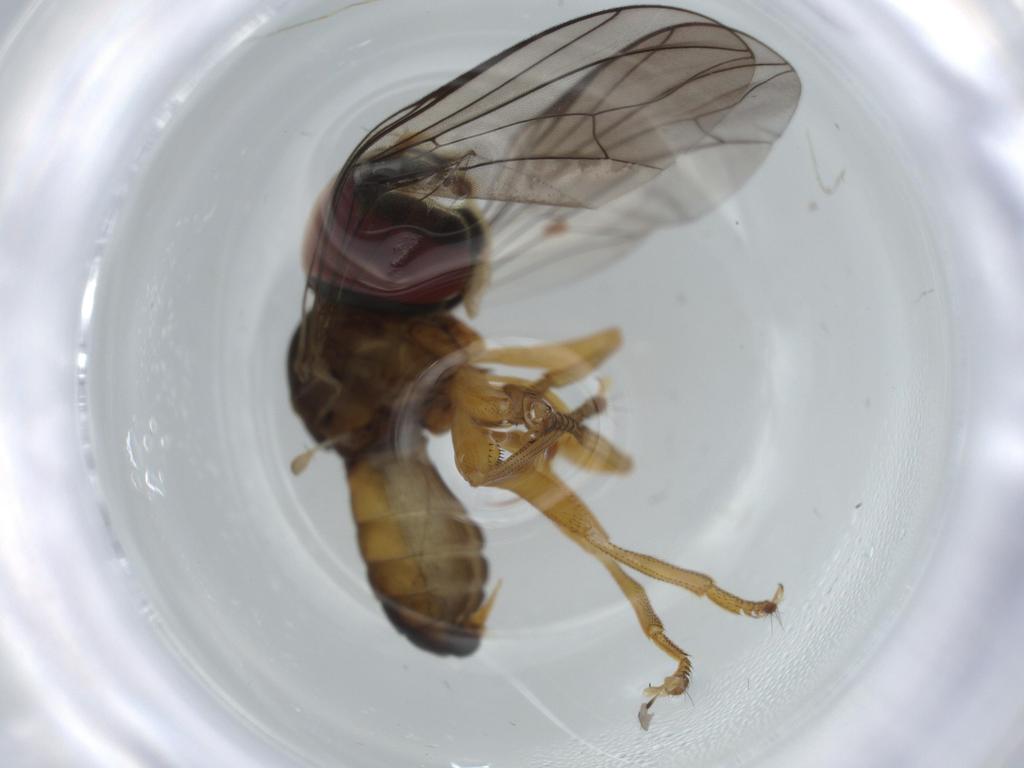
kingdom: Animalia
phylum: Arthropoda
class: Insecta
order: Diptera
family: Pipunculidae
